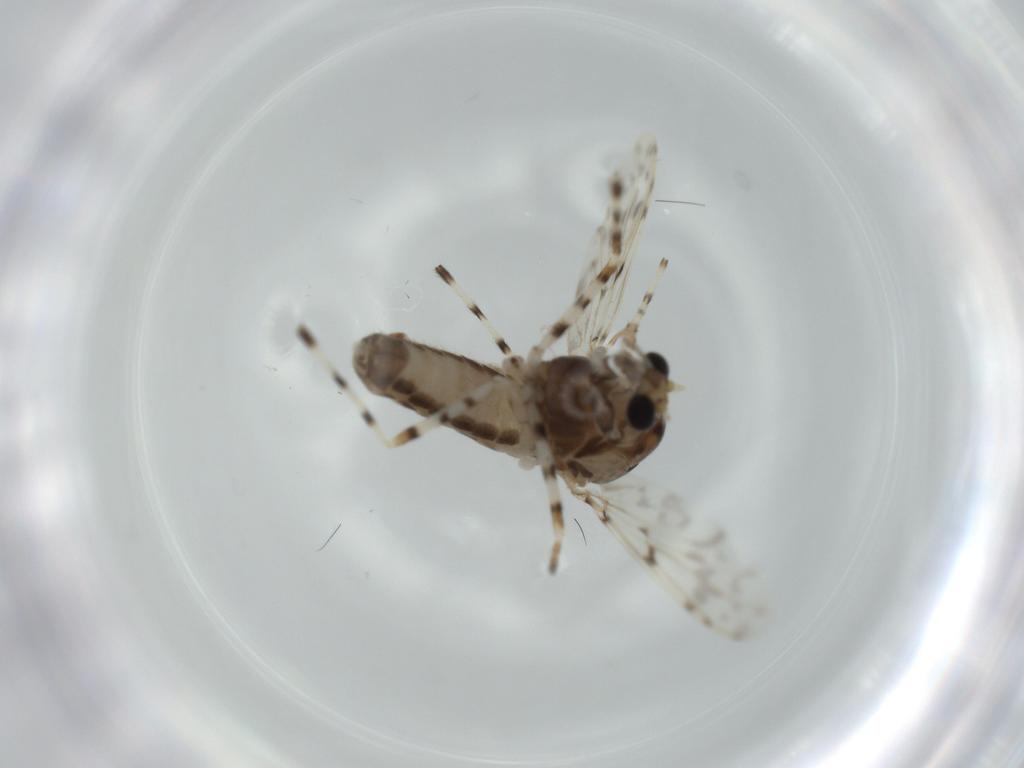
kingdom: Animalia
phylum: Arthropoda
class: Insecta
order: Diptera
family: Chironomidae
